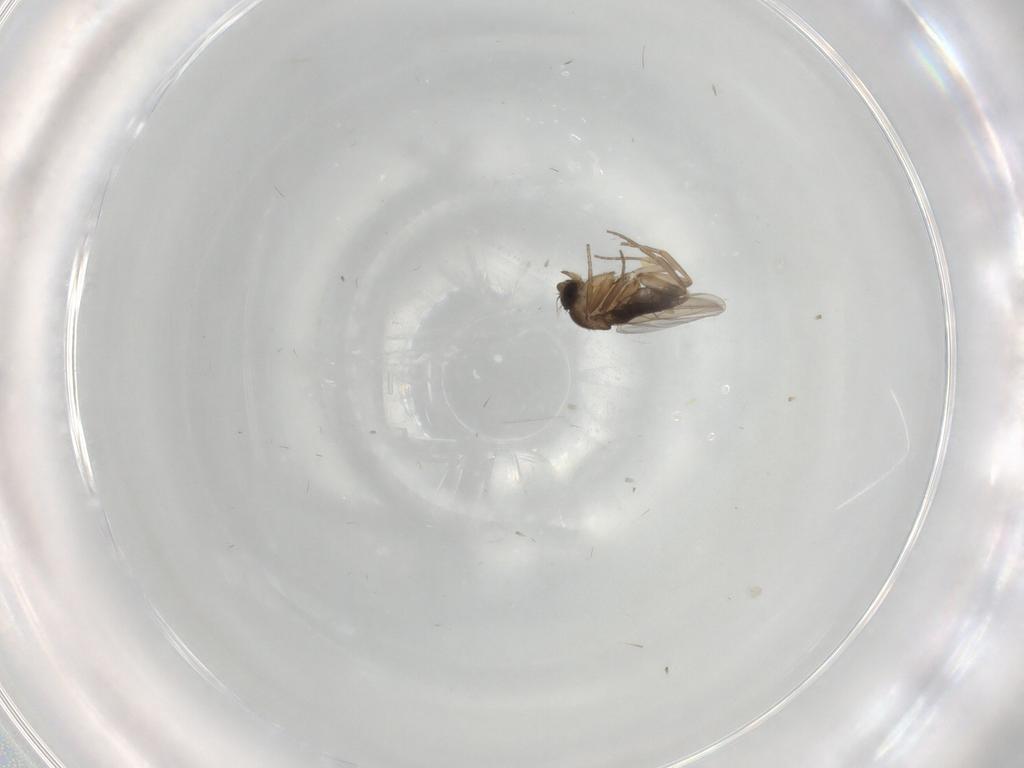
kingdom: Animalia
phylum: Arthropoda
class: Insecta
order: Diptera
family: Phoridae
